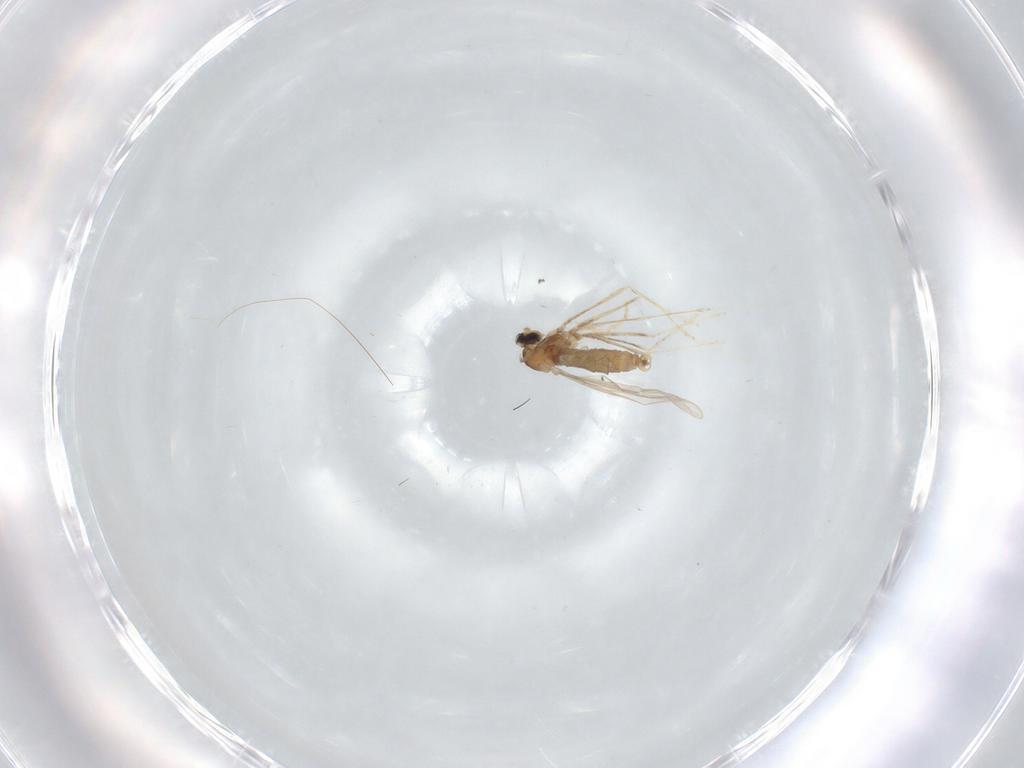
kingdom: Animalia
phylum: Arthropoda
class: Insecta
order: Diptera
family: Cecidomyiidae
